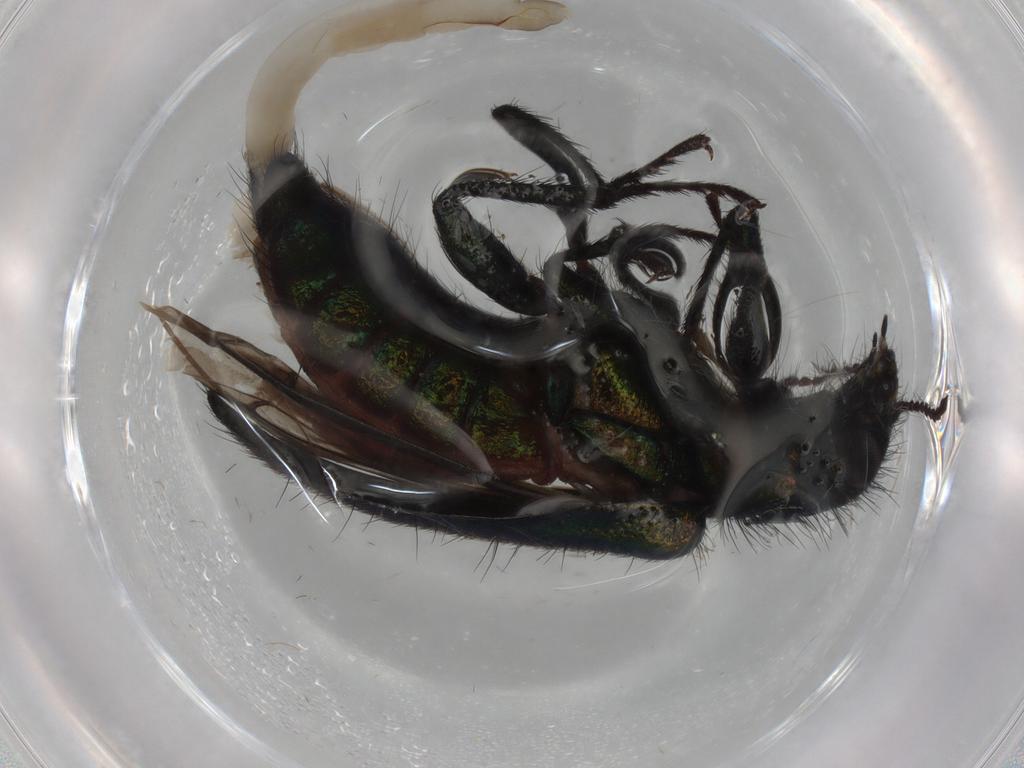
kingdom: Animalia
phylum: Arthropoda
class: Insecta
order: Coleoptera
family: Melyridae
